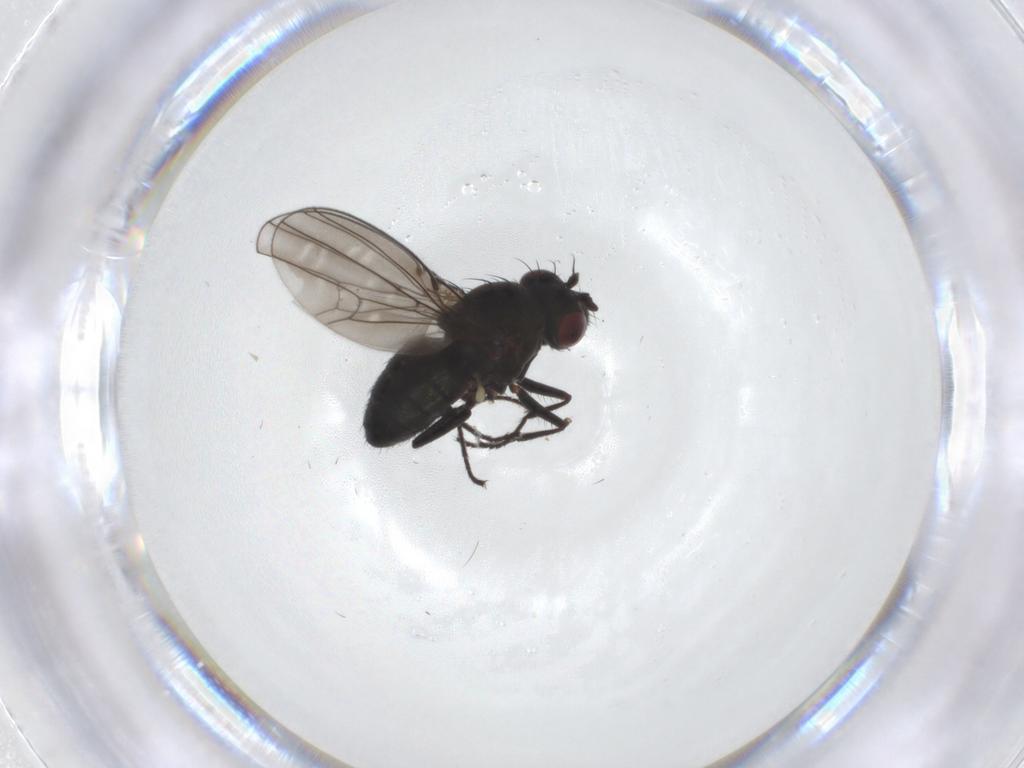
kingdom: Animalia
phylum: Arthropoda
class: Insecta
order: Diptera
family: Ephydridae
